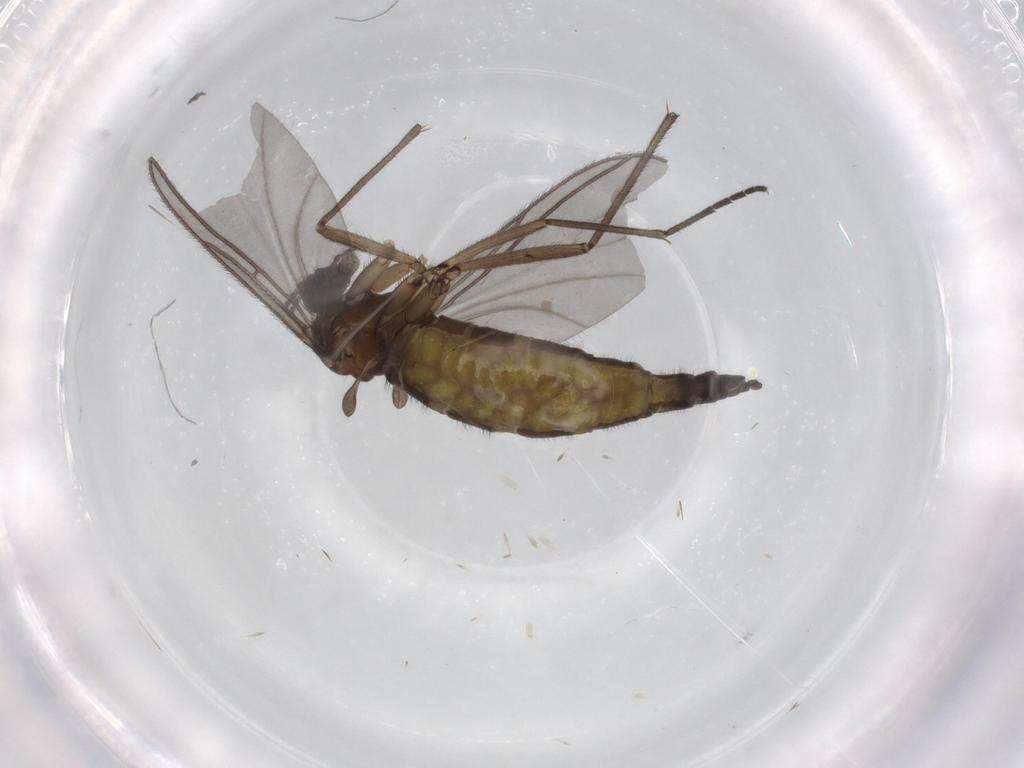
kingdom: Animalia
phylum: Arthropoda
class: Insecta
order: Diptera
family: Sciaridae
